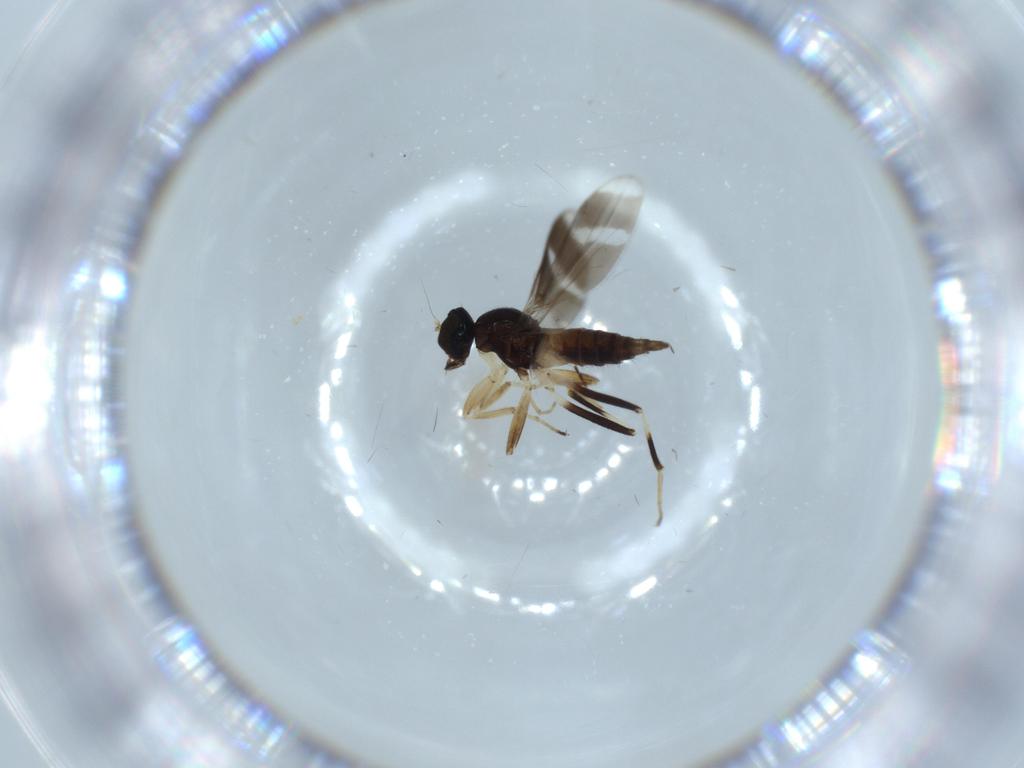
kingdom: Animalia
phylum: Arthropoda
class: Insecta
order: Diptera
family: Hybotidae
